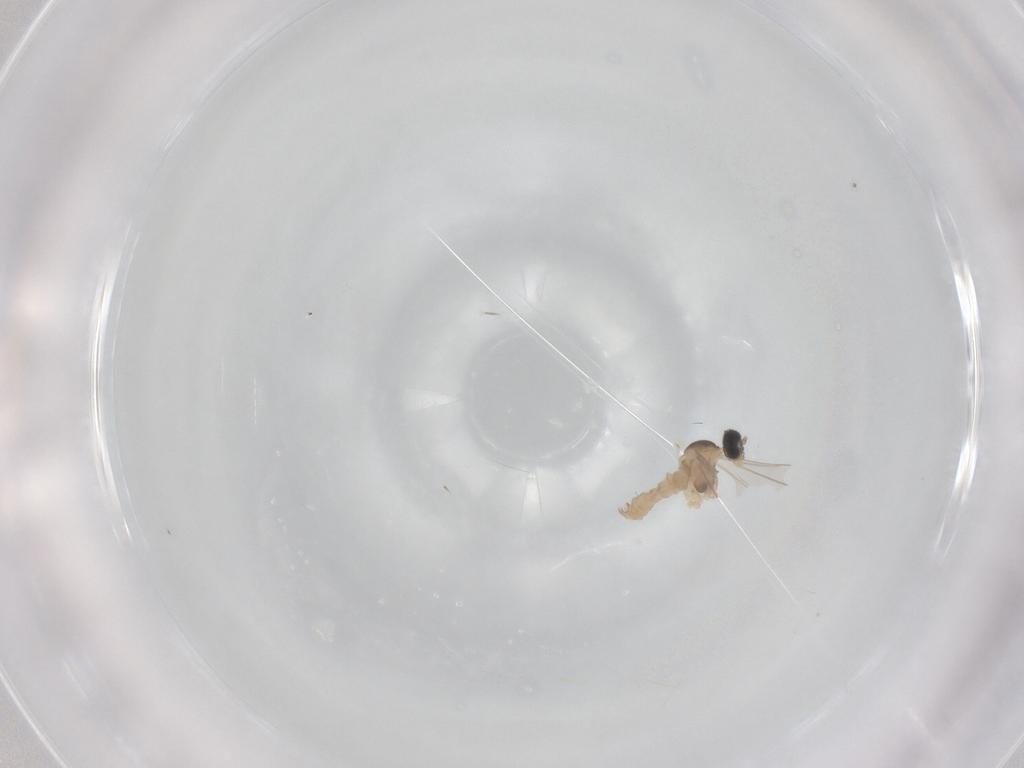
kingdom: Animalia
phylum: Arthropoda
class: Insecta
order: Diptera
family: Cecidomyiidae
